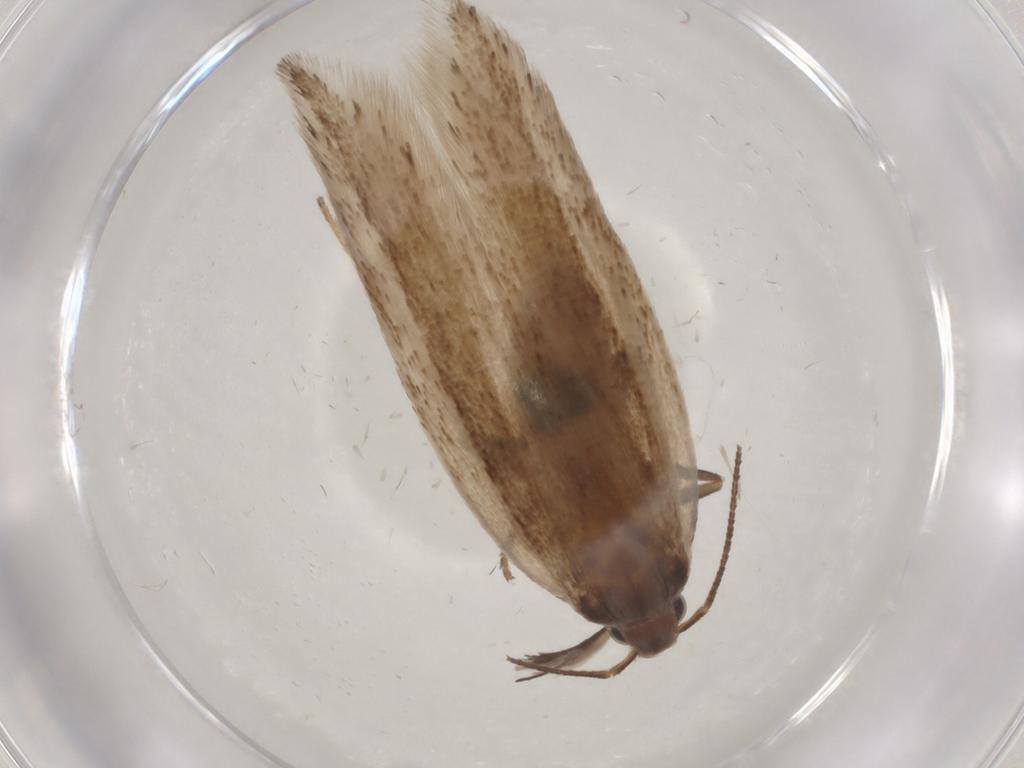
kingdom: Animalia
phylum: Arthropoda
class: Insecta
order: Lepidoptera
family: Gelechiidae
